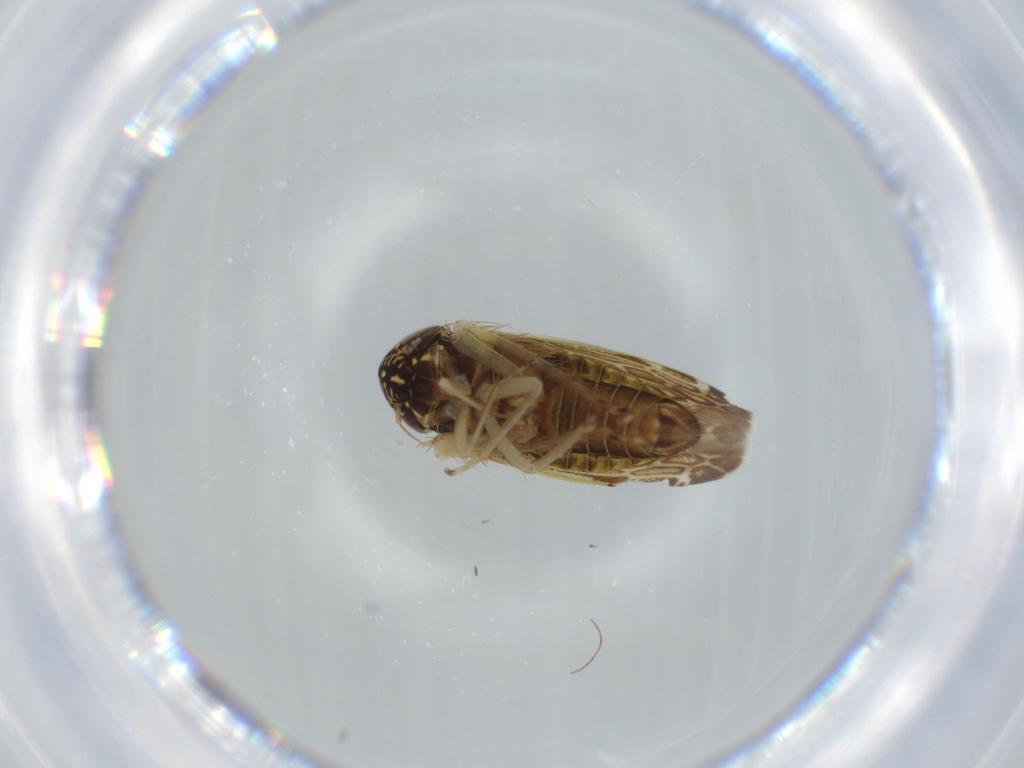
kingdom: Animalia
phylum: Arthropoda
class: Insecta
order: Hemiptera
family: Cicadellidae
